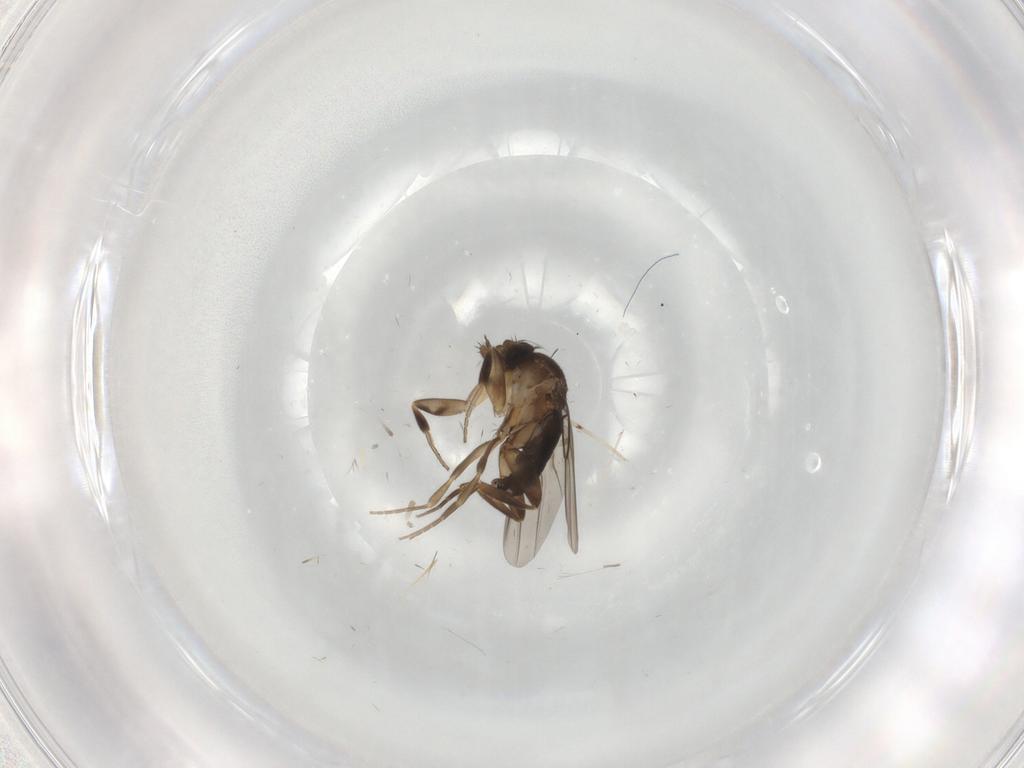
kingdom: Animalia
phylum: Arthropoda
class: Insecta
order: Diptera
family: Phoridae
